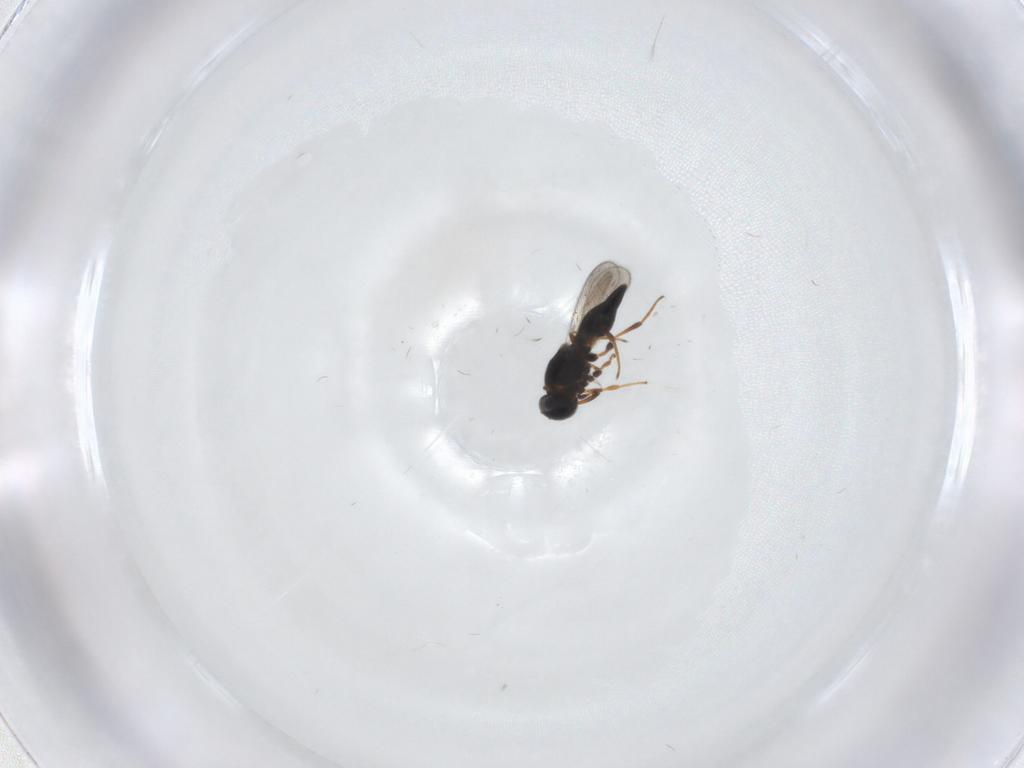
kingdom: Animalia
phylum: Arthropoda
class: Insecta
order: Hymenoptera
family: Platygastridae
